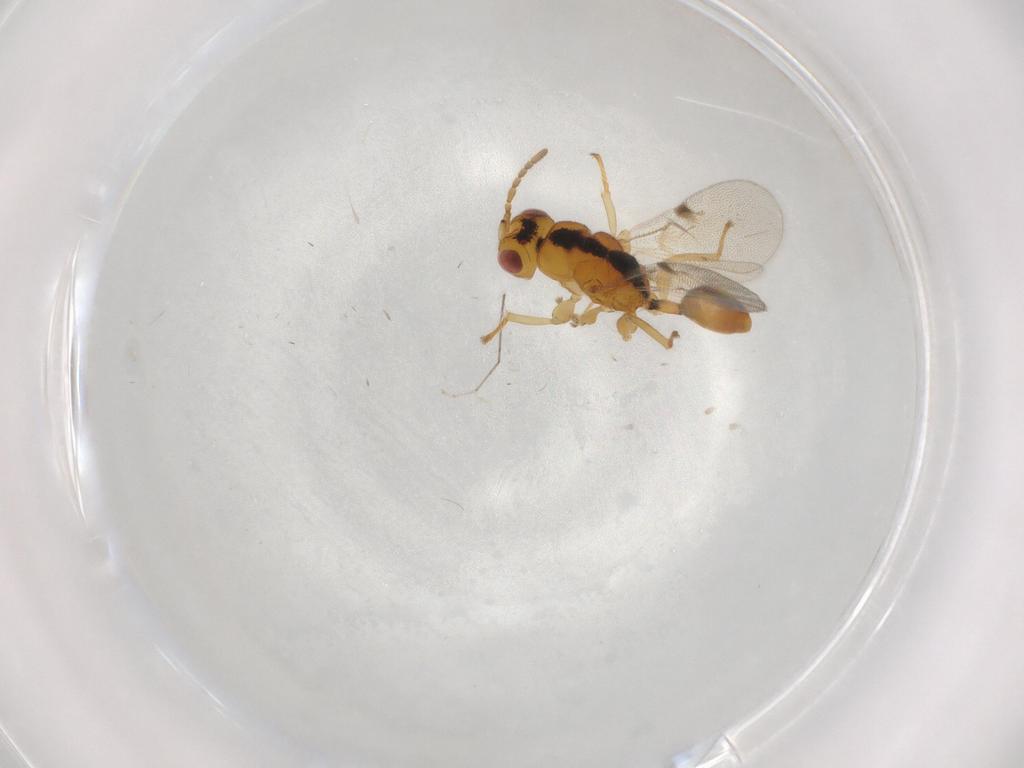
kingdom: Animalia
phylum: Arthropoda
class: Insecta
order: Hymenoptera
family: Eurytomidae
